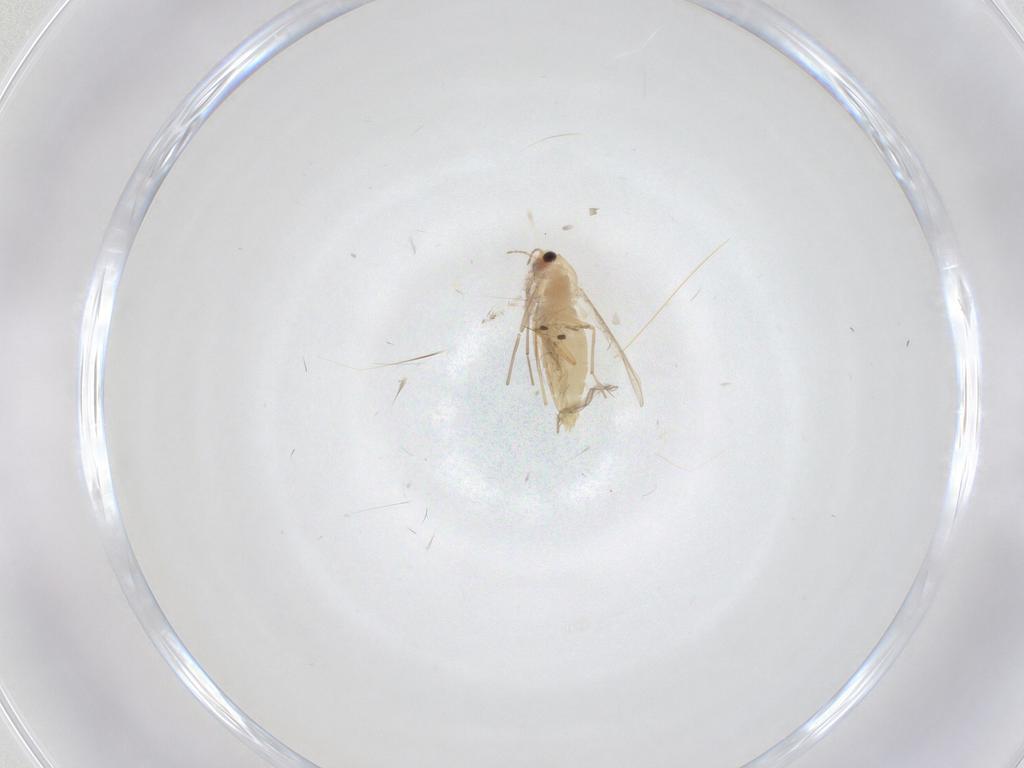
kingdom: Animalia
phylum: Arthropoda
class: Insecta
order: Diptera
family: Chironomidae
